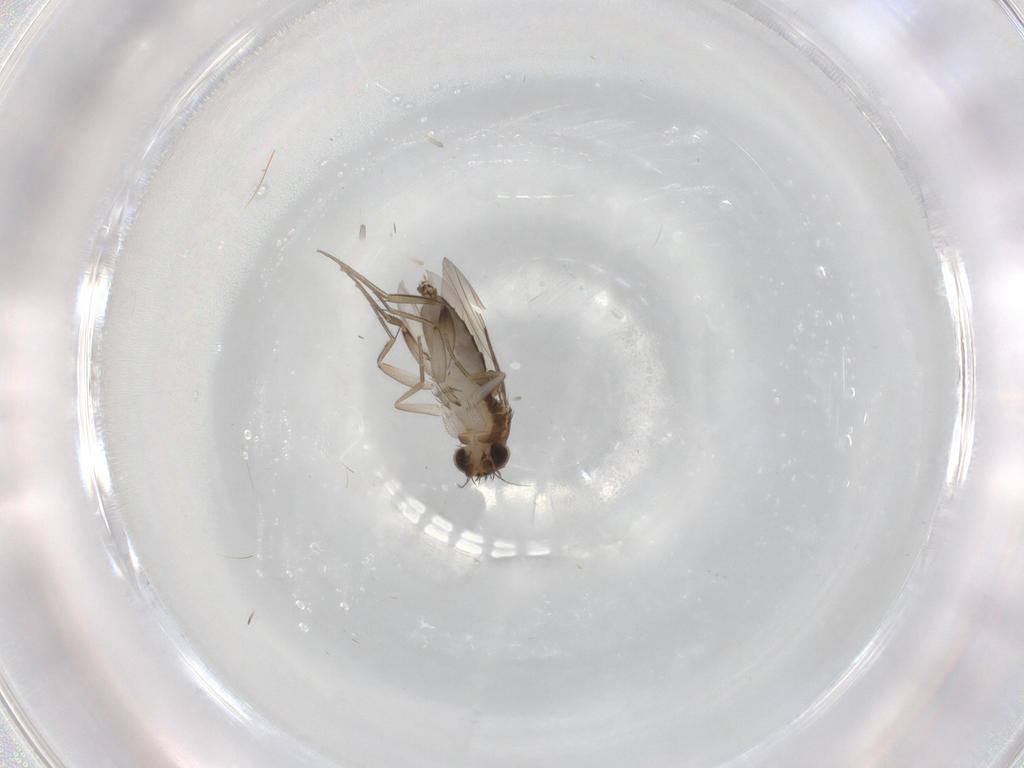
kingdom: Animalia
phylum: Arthropoda
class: Insecta
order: Diptera
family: Phoridae
